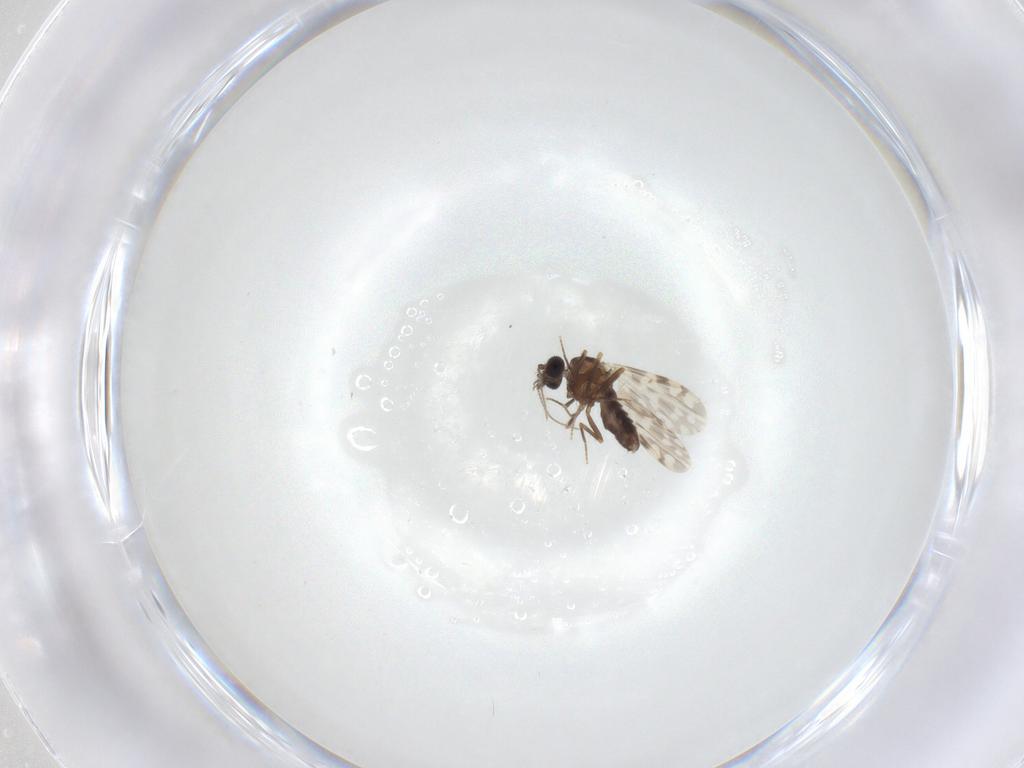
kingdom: Animalia
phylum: Arthropoda
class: Insecta
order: Diptera
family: Ceratopogonidae
